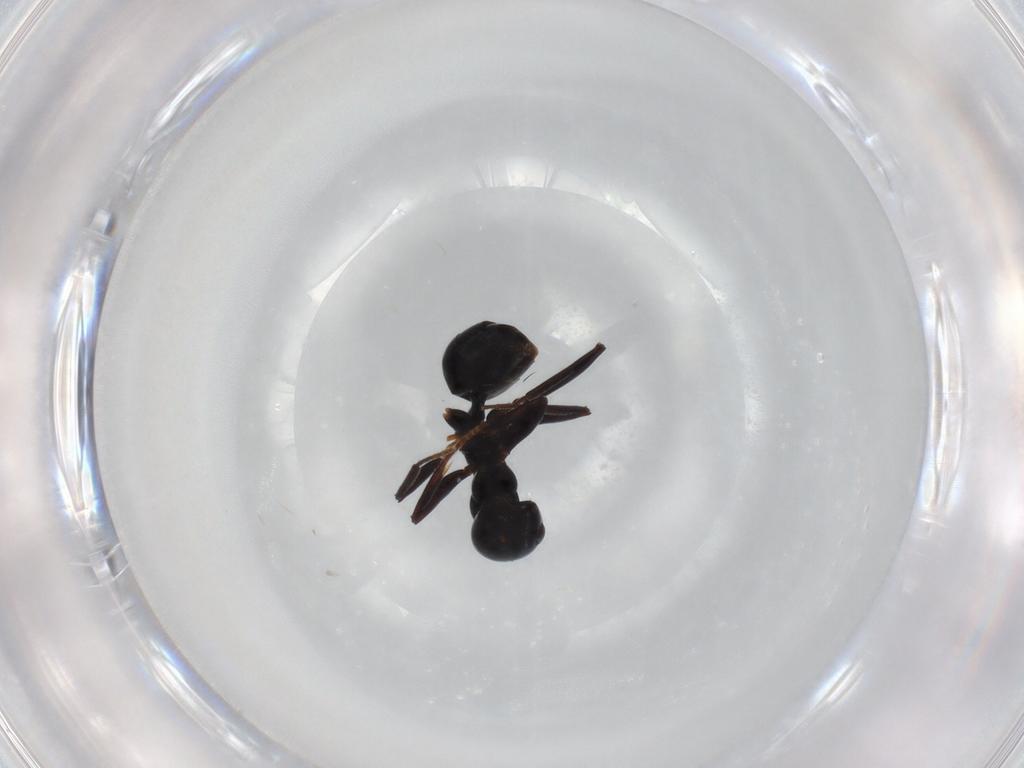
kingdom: Animalia
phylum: Arthropoda
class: Insecta
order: Hymenoptera
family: Formicidae
